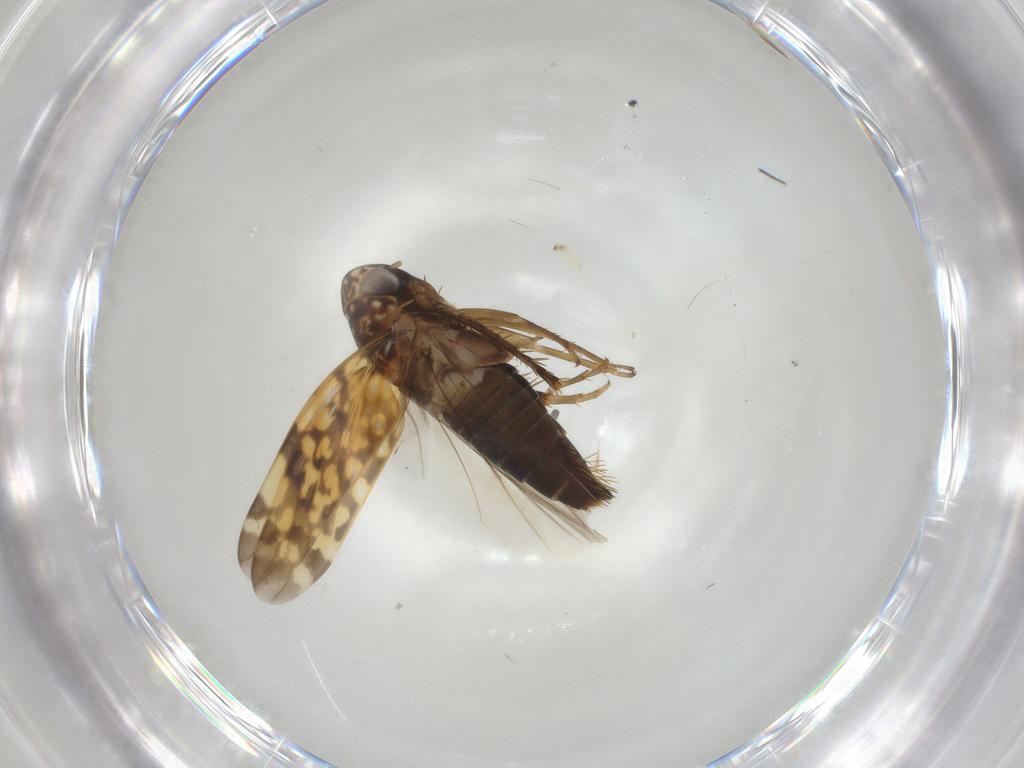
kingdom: Animalia
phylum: Arthropoda
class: Insecta
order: Hemiptera
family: Cicadellidae
